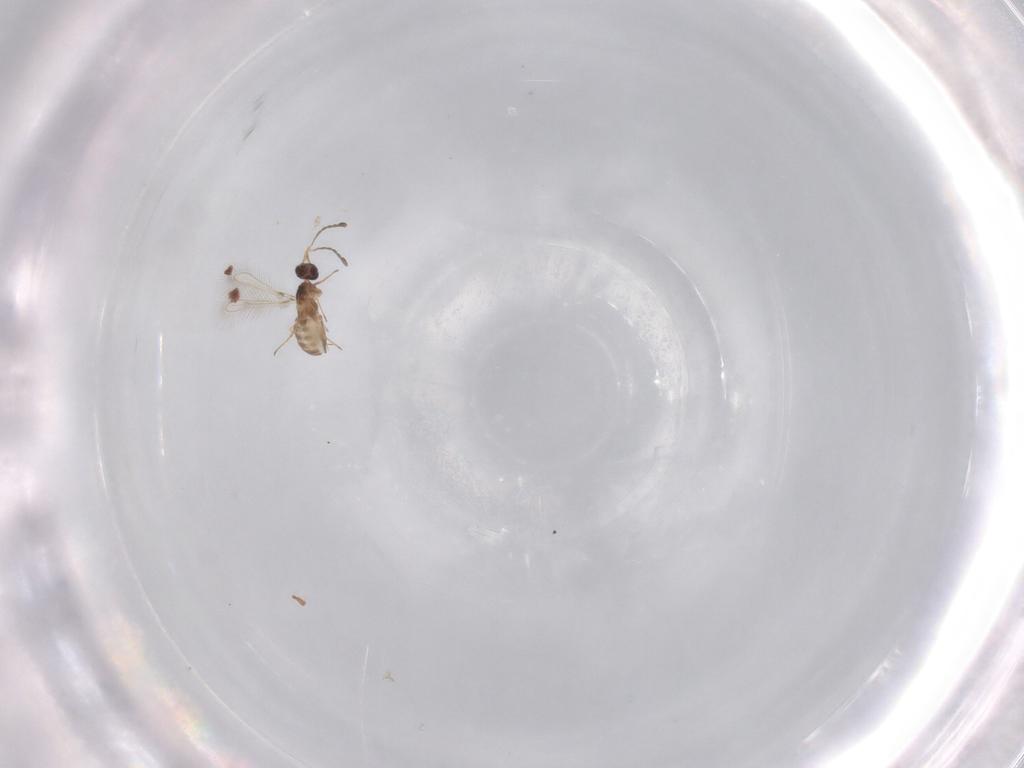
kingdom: Animalia
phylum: Arthropoda
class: Insecta
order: Hymenoptera
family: Mymaridae
